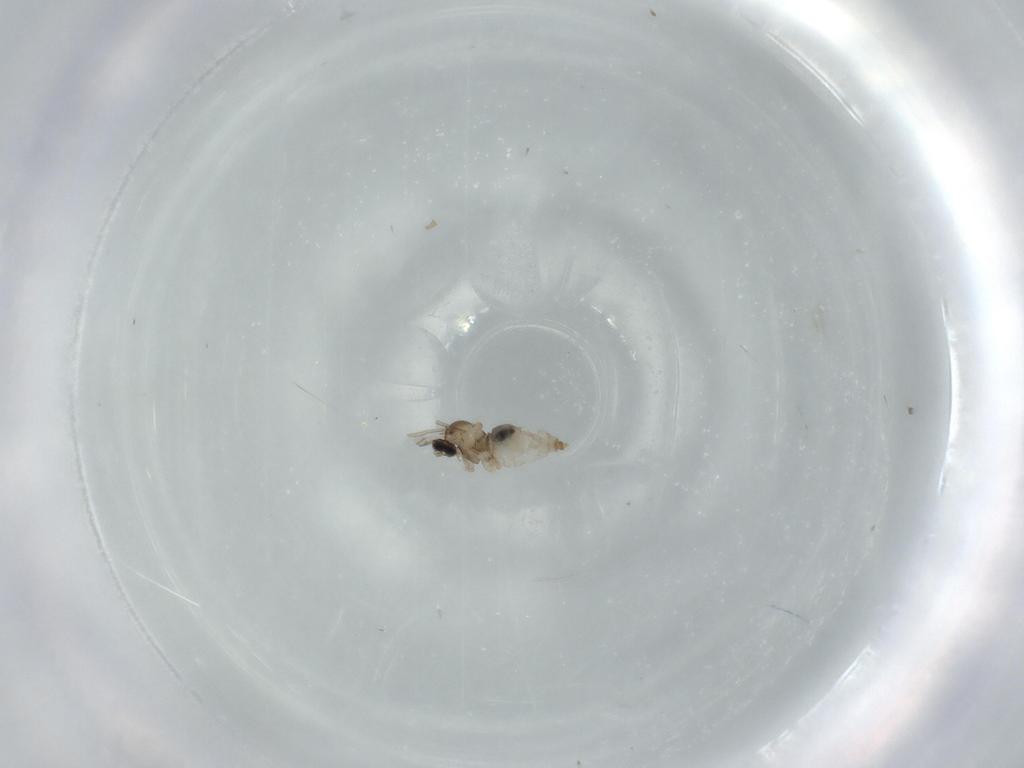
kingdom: Animalia
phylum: Arthropoda
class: Insecta
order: Diptera
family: Cecidomyiidae
